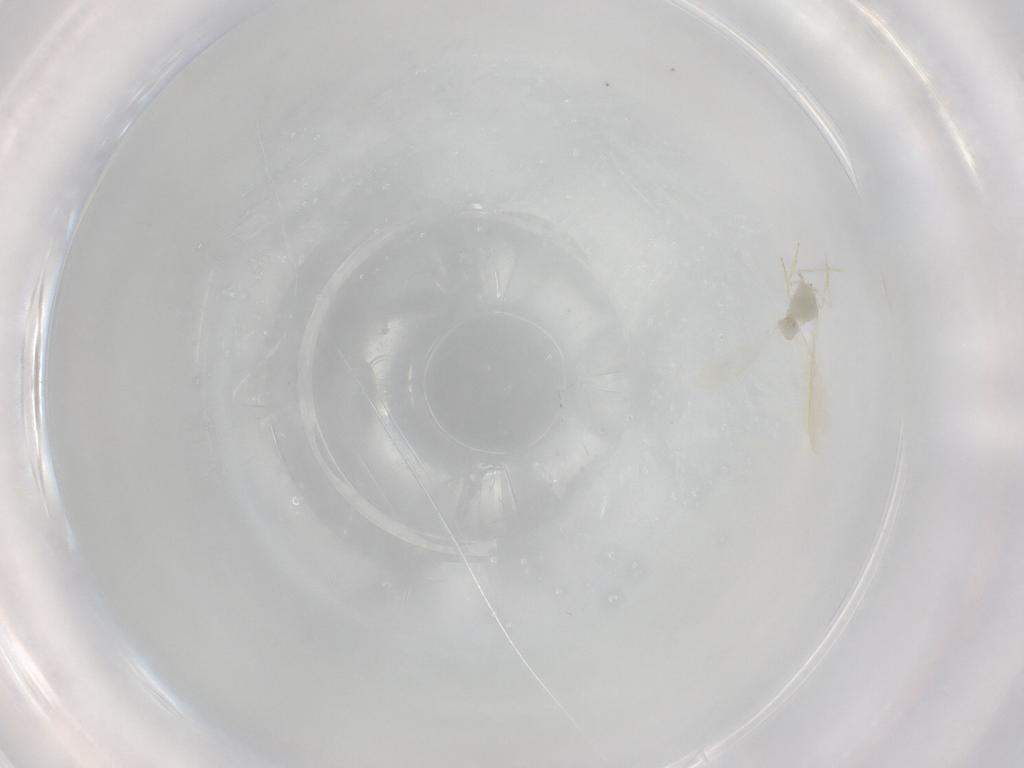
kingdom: Animalia
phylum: Arthropoda
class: Insecta
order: Hemiptera
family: Aleyrodidae
